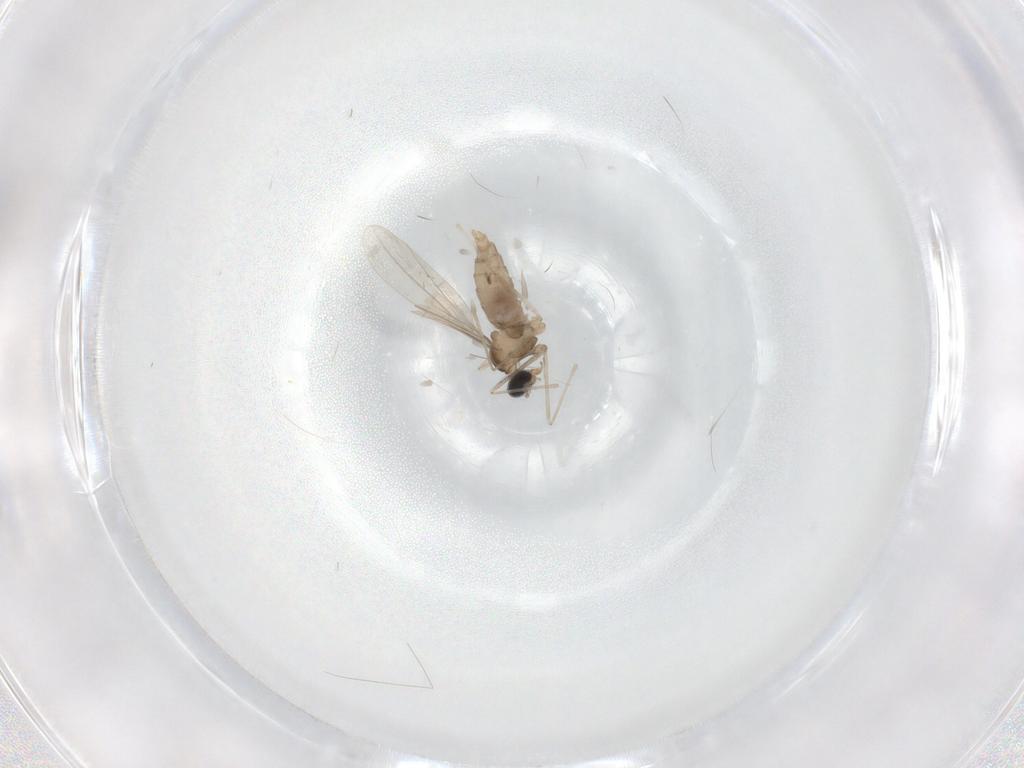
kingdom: Animalia
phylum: Arthropoda
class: Insecta
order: Diptera
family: Cecidomyiidae
